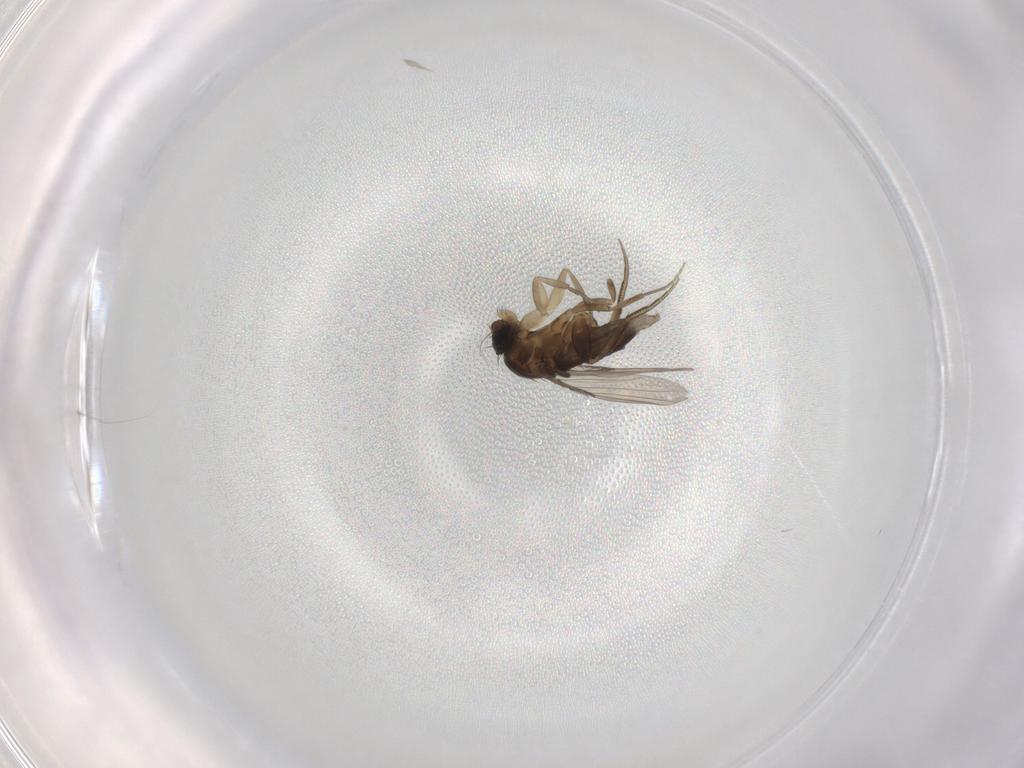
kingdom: Animalia
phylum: Arthropoda
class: Insecta
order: Diptera
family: Phoridae
